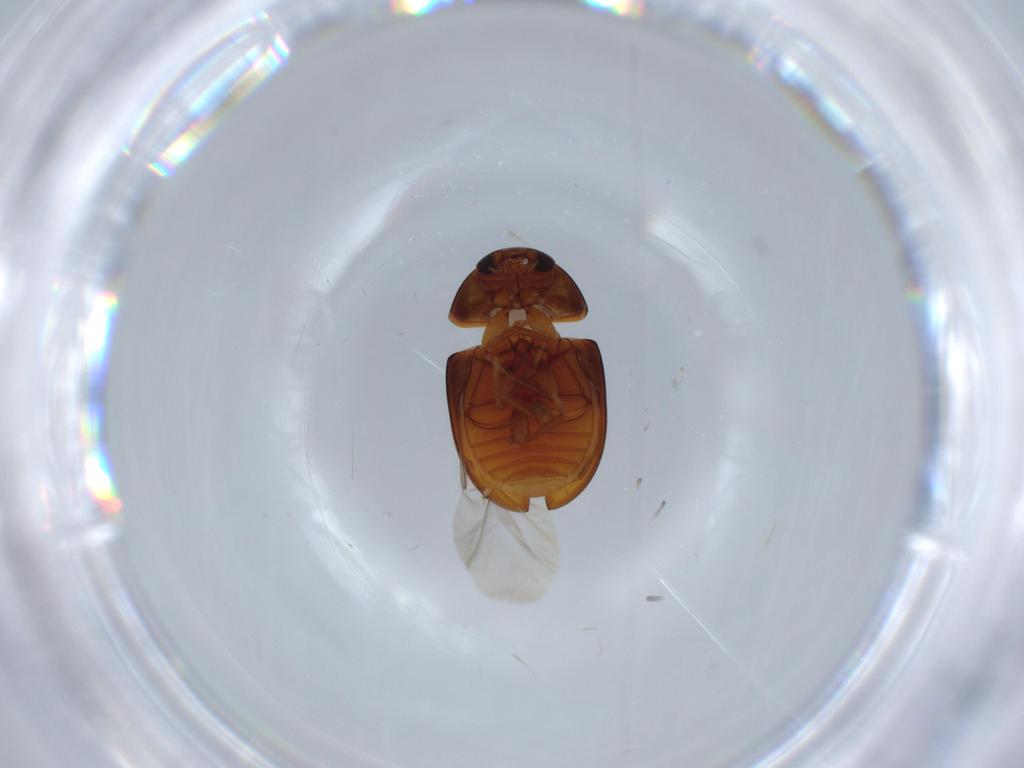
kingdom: Animalia
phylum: Arthropoda
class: Insecta
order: Coleoptera
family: Phalacridae
